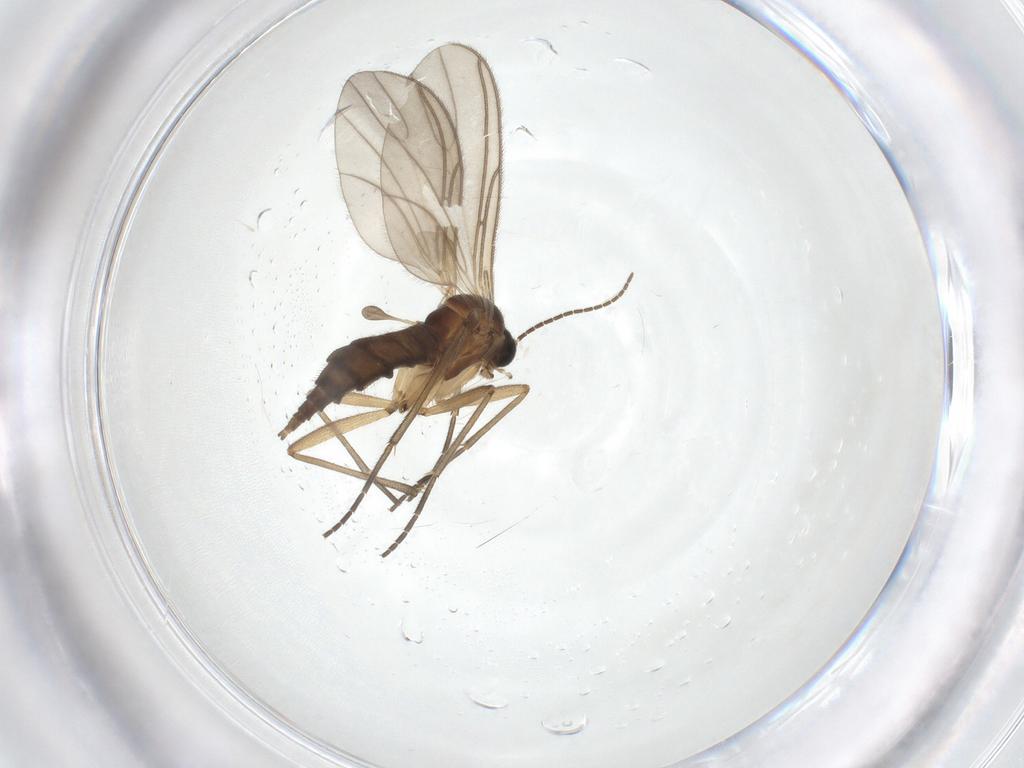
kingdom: Animalia
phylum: Arthropoda
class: Insecta
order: Diptera
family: Sciaridae
